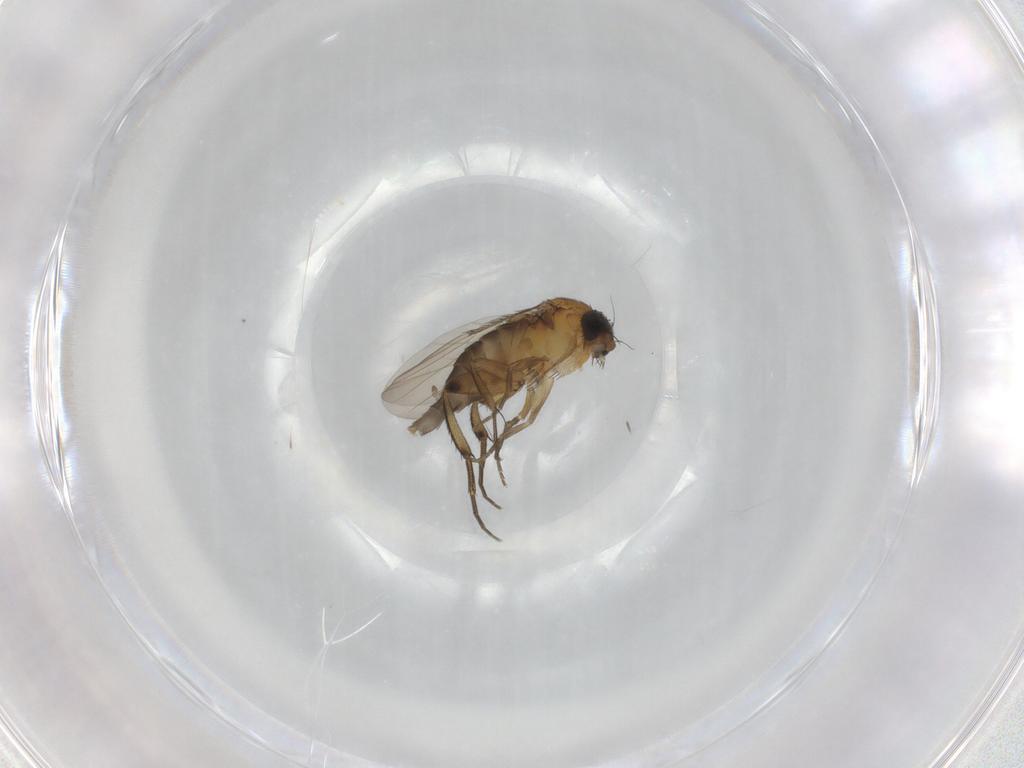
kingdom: Animalia
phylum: Arthropoda
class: Insecta
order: Diptera
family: Phoridae
